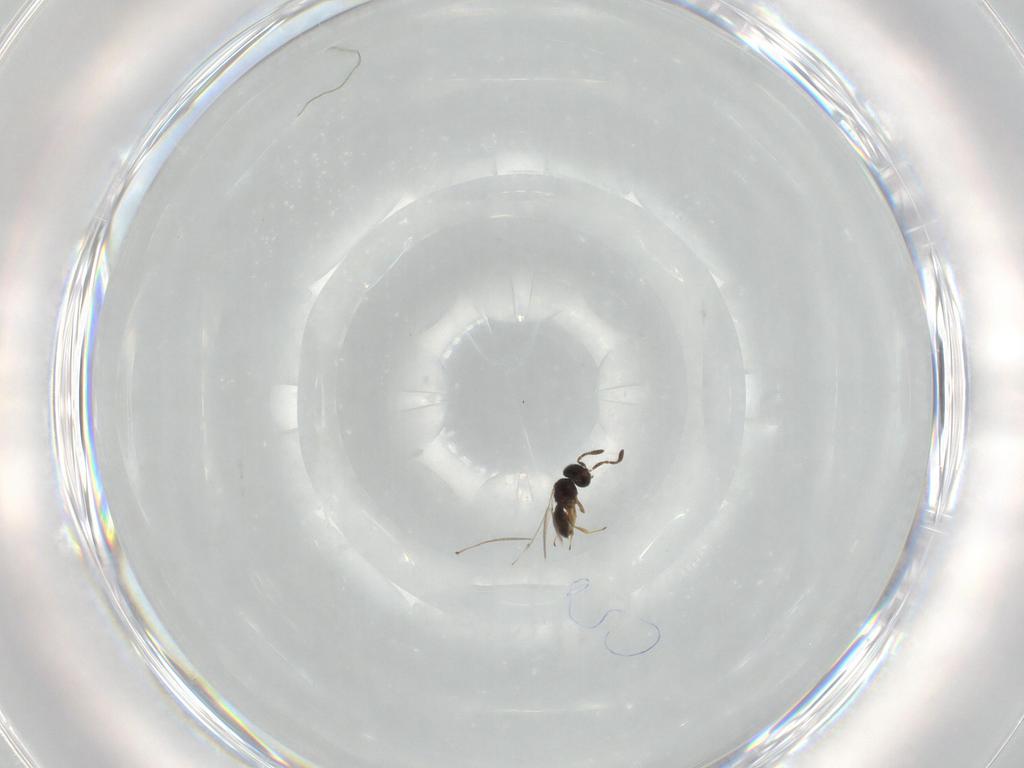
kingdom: Animalia
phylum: Arthropoda
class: Insecta
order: Hymenoptera
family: Scelionidae
